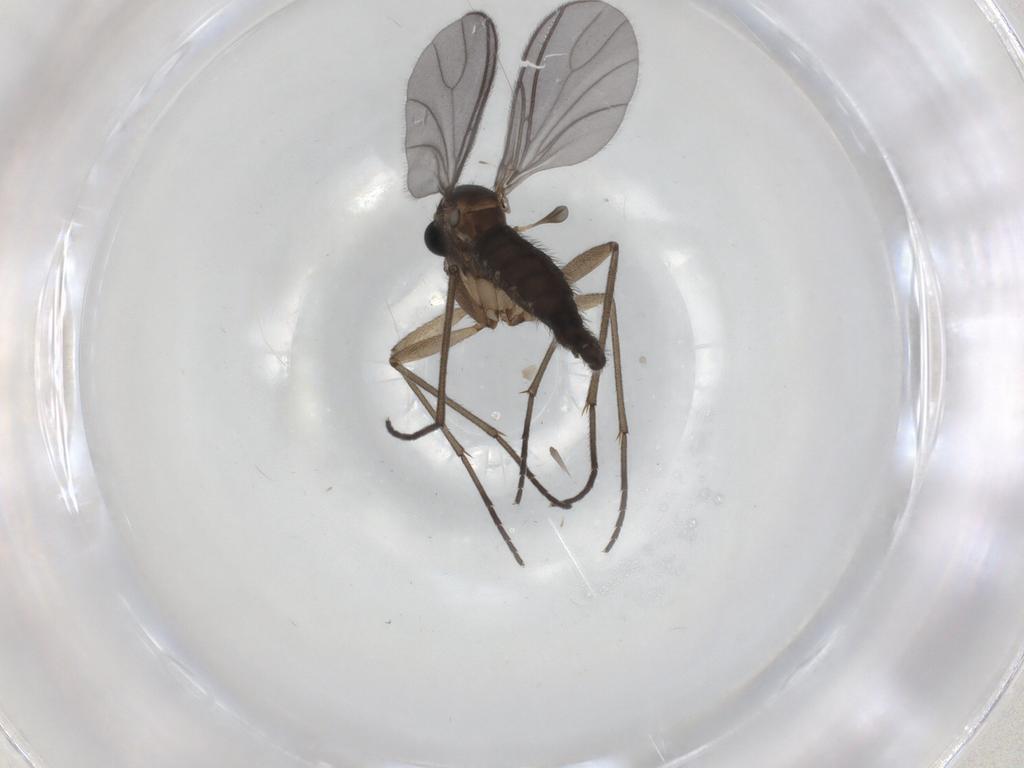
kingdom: Animalia
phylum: Arthropoda
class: Insecta
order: Diptera
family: Sciaridae
